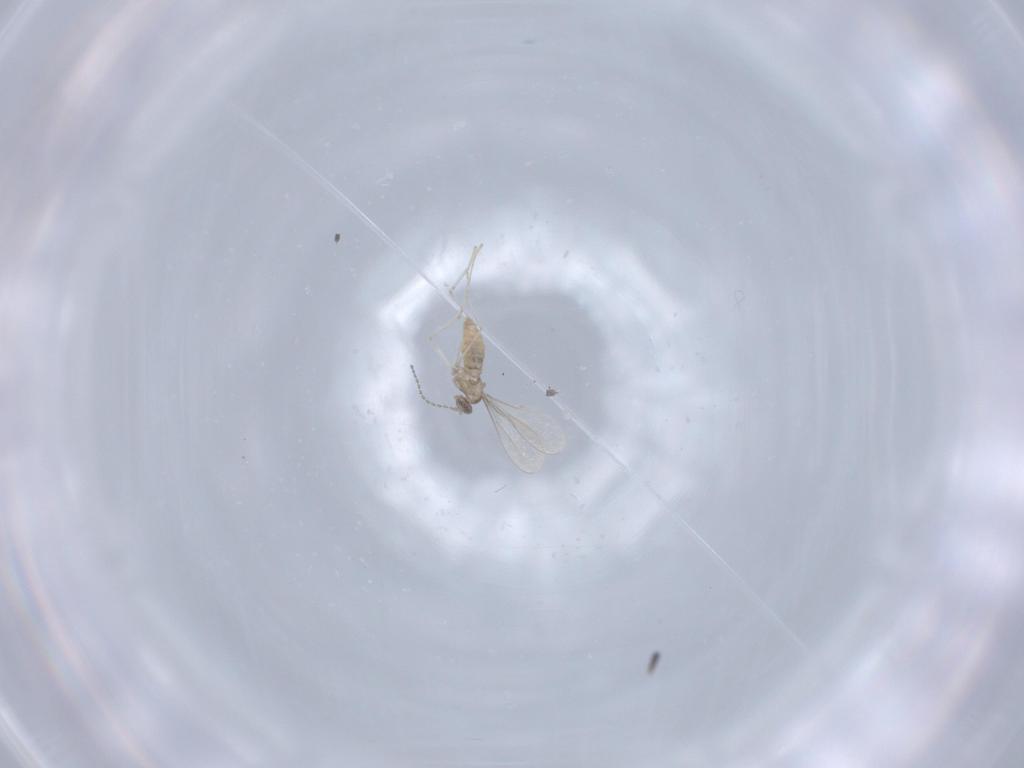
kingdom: Animalia
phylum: Arthropoda
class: Insecta
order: Diptera
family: Cecidomyiidae
